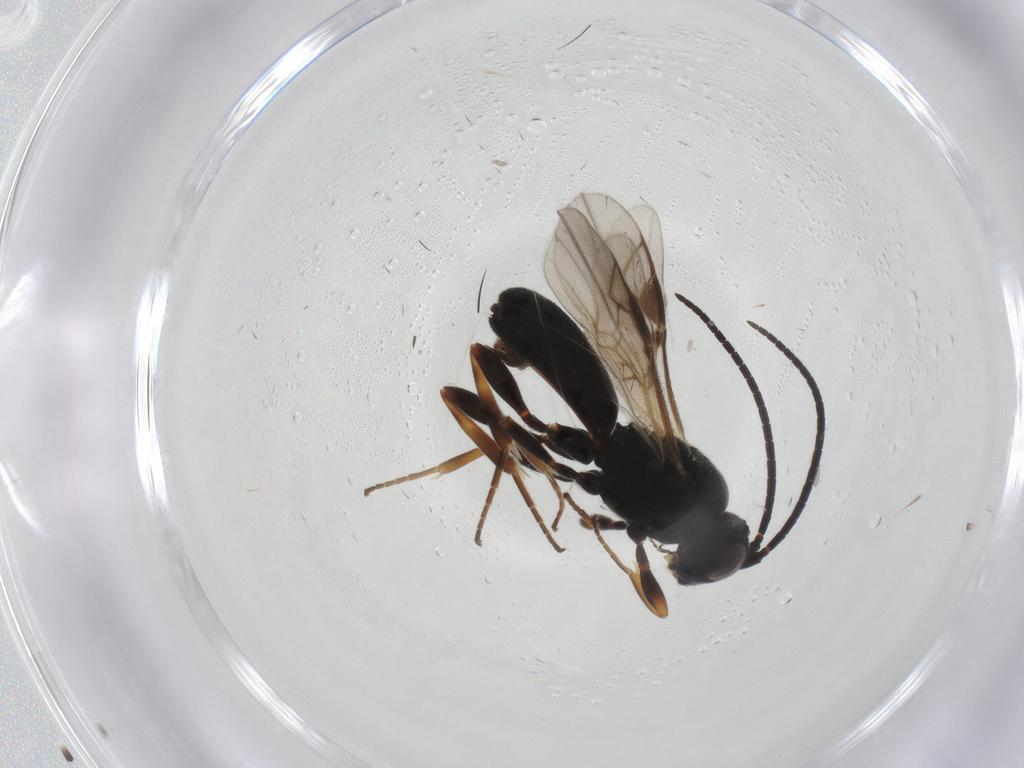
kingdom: Animalia
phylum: Arthropoda
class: Insecta
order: Hymenoptera
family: Braconidae
